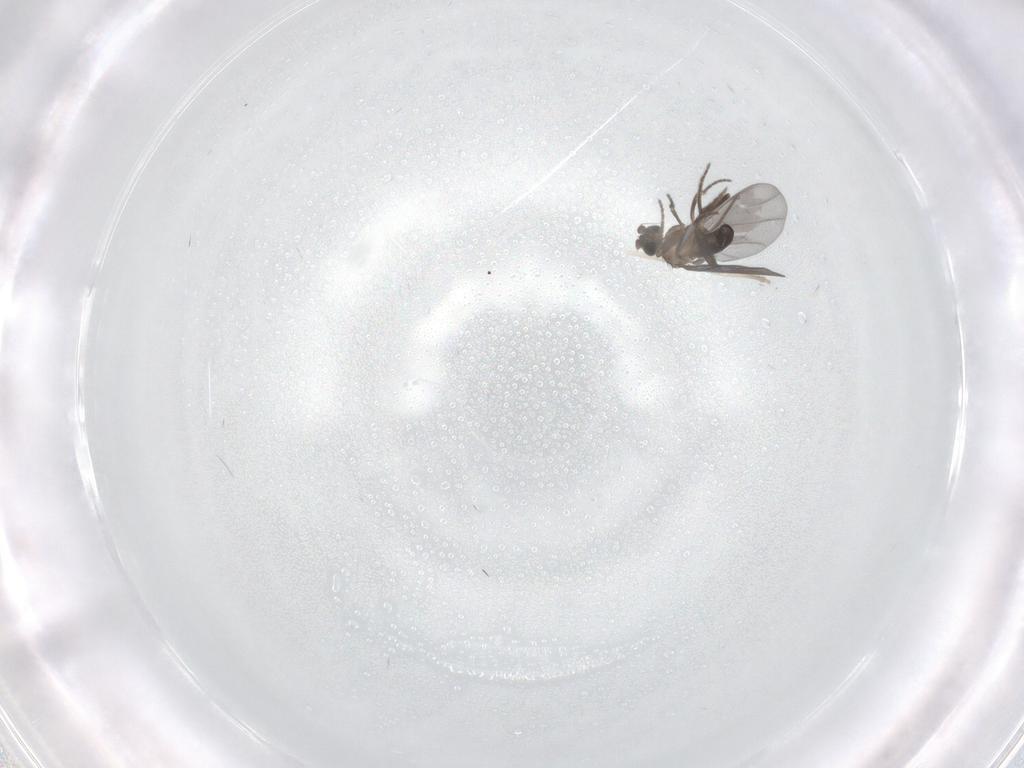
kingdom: Animalia
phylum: Arthropoda
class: Insecta
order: Diptera
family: Phoridae
